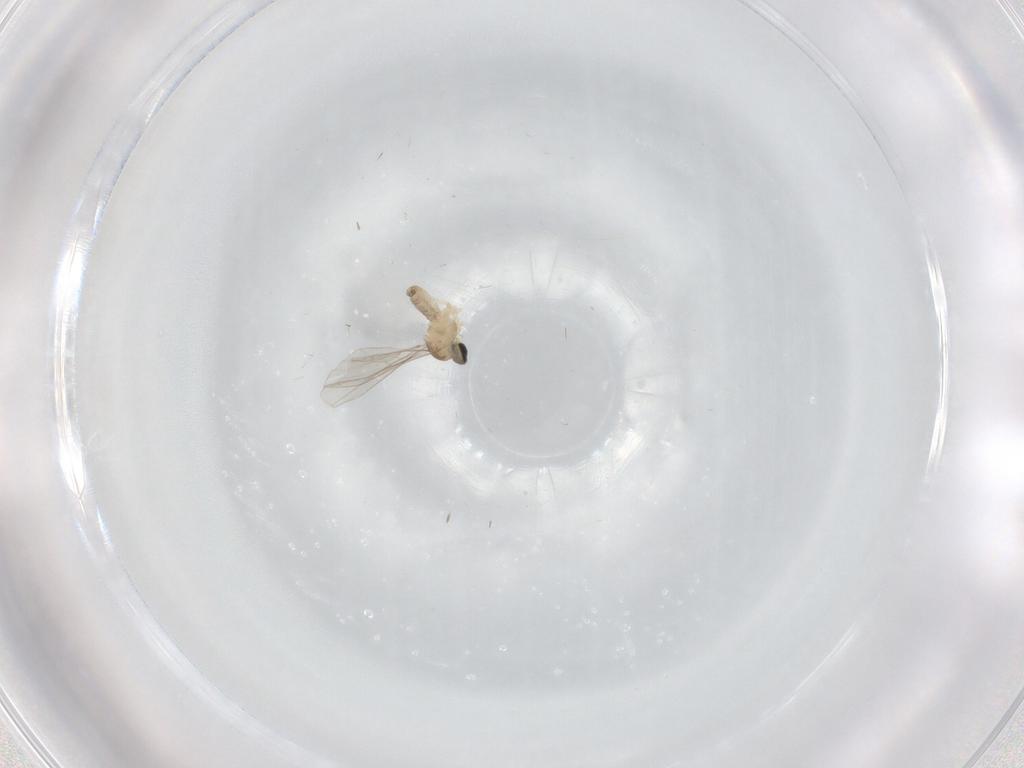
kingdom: Animalia
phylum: Arthropoda
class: Insecta
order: Diptera
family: Cecidomyiidae
